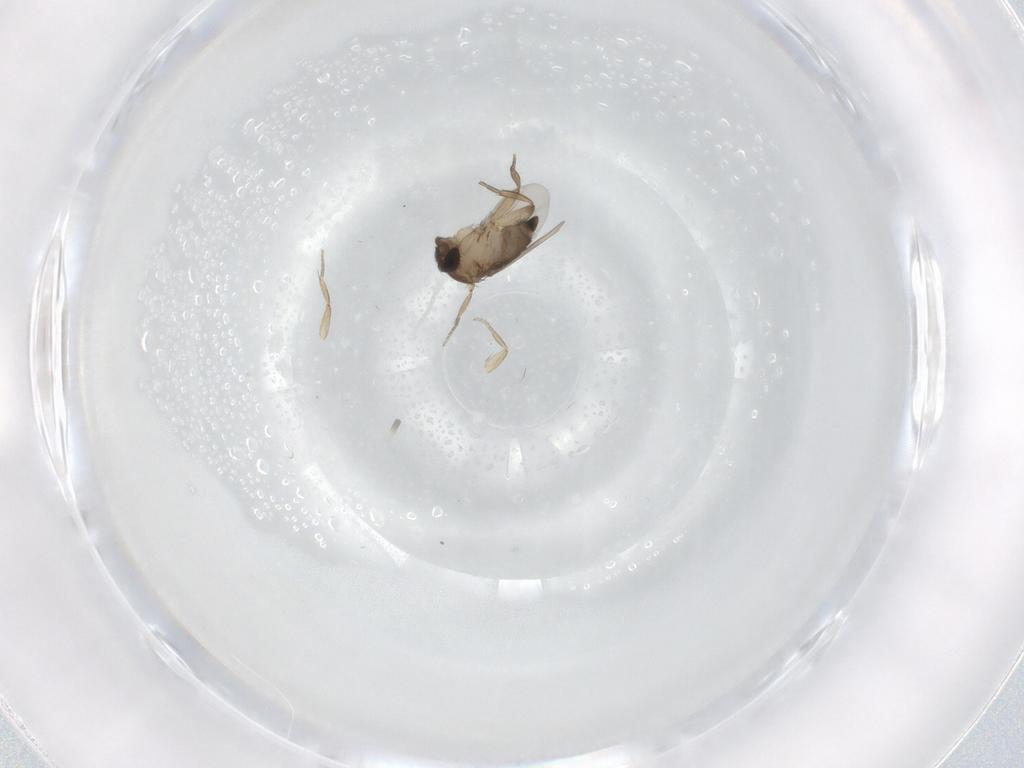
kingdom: Animalia
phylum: Arthropoda
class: Insecta
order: Diptera
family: Phoridae
